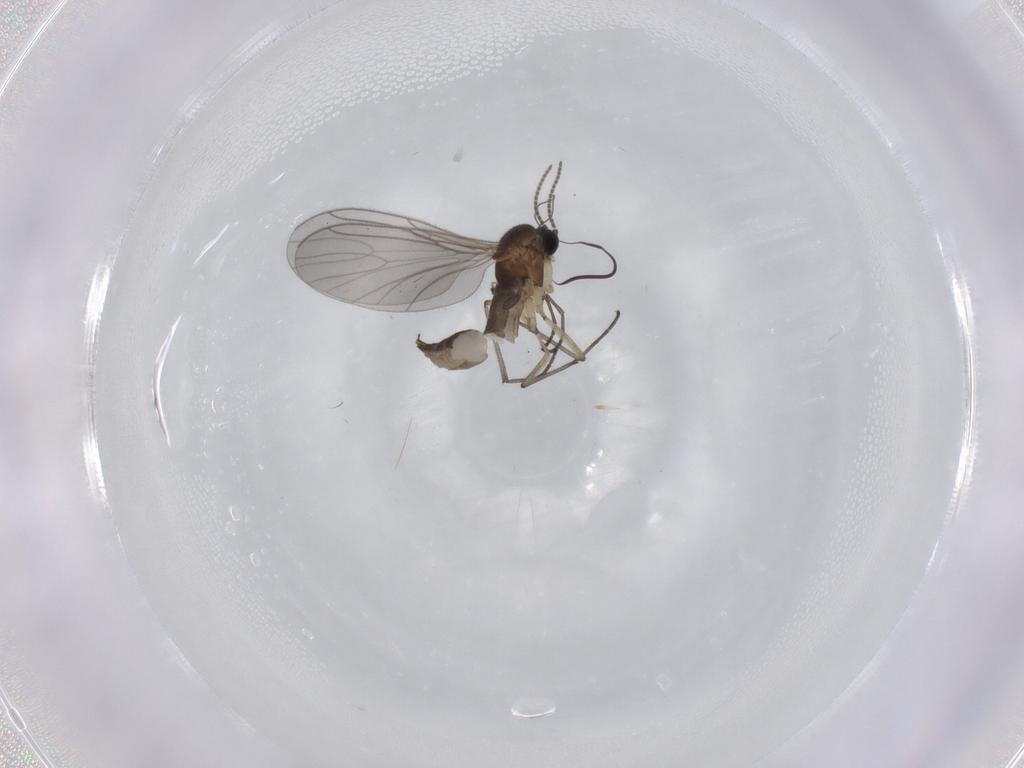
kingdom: Animalia
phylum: Arthropoda
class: Insecta
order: Diptera
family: Sciaridae
